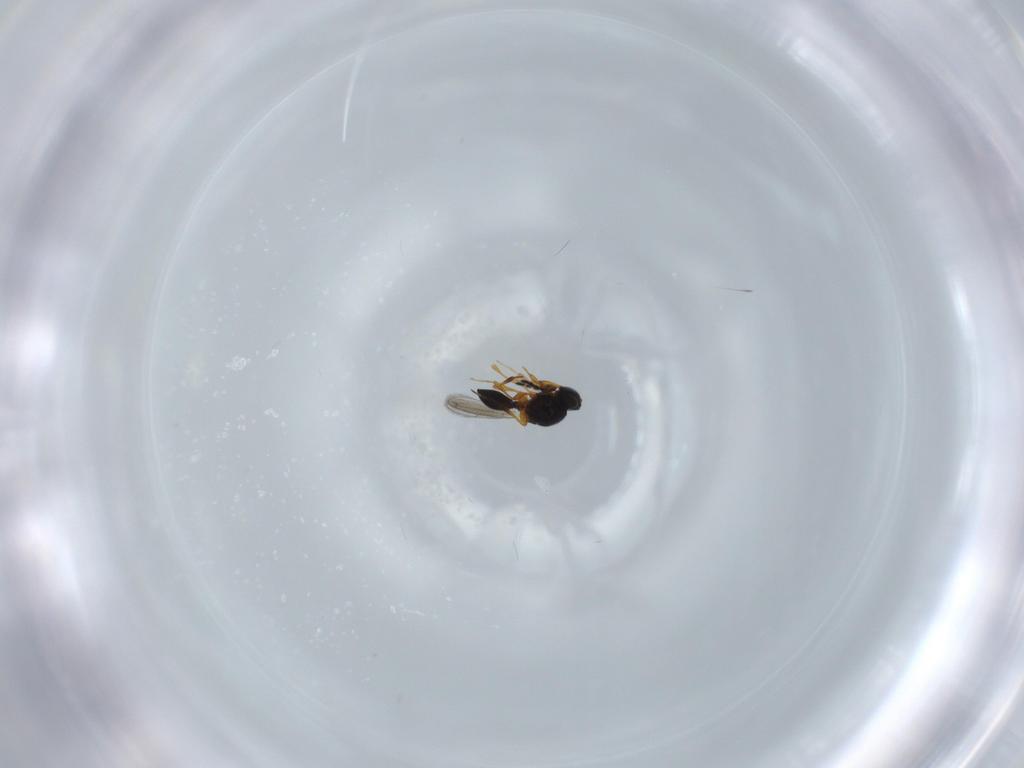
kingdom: Animalia
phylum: Arthropoda
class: Insecta
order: Hymenoptera
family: Platygastridae
